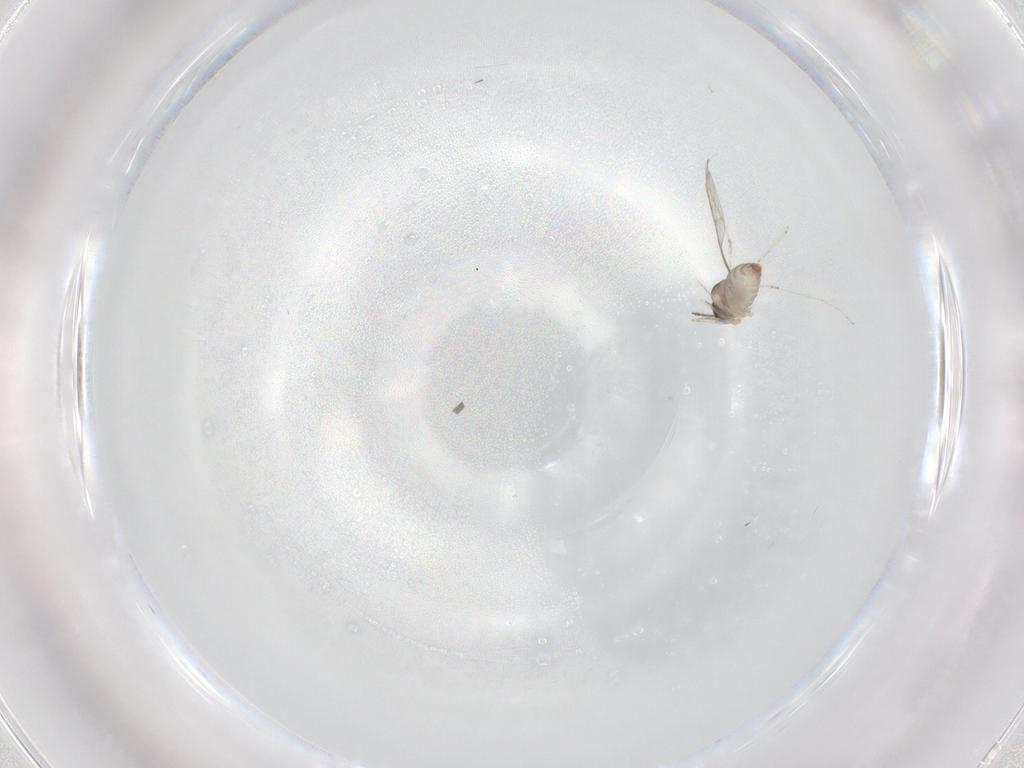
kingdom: Animalia
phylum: Arthropoda
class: Insecta
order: Diptera
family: Cecidomyiidae
